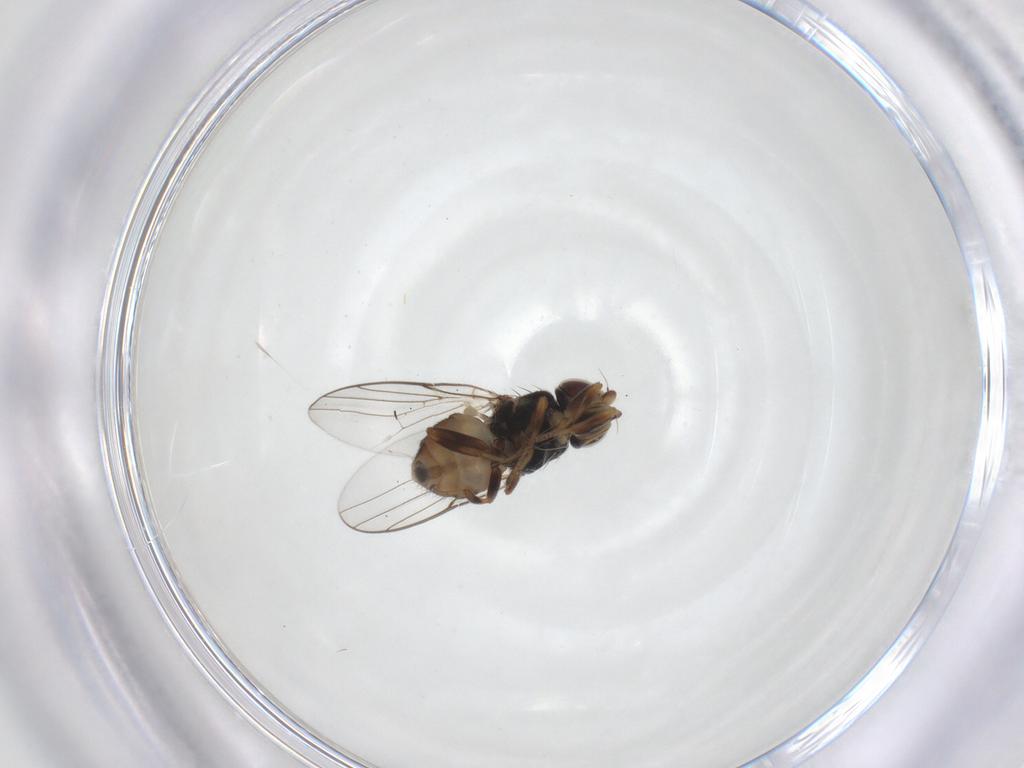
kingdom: Animalia
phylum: Arthropoda
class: Insecta
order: Diptera
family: Chloropidae
